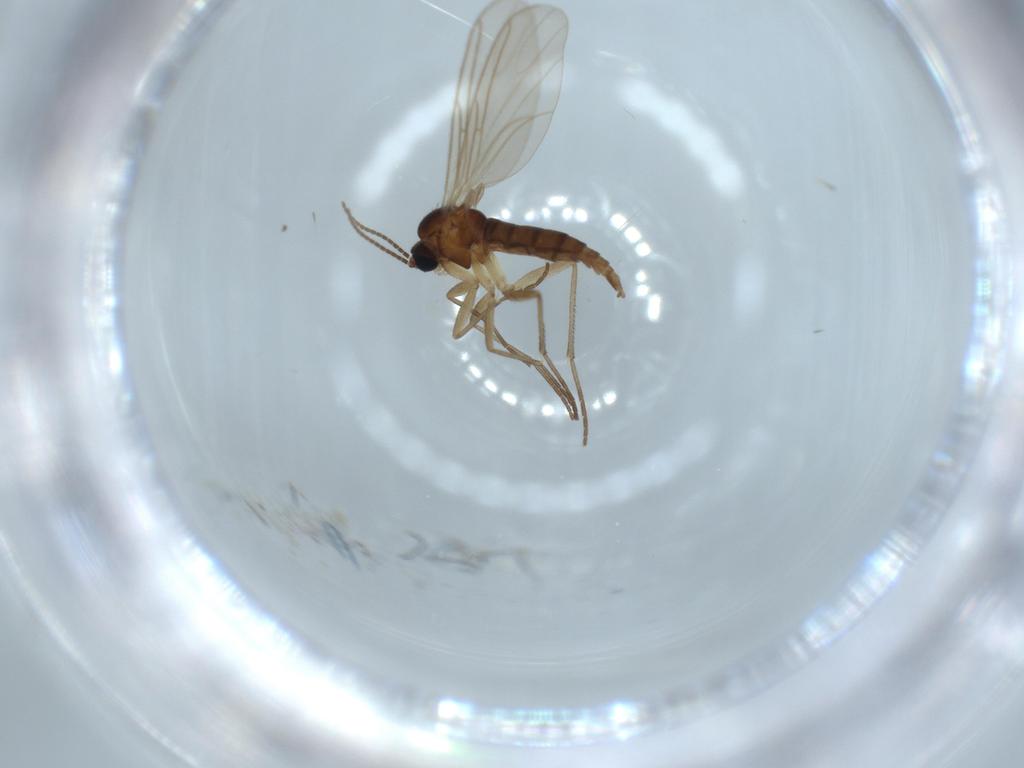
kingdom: Animalia
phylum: Arthropoda
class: Insecta
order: Diptera
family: Sciaridae
